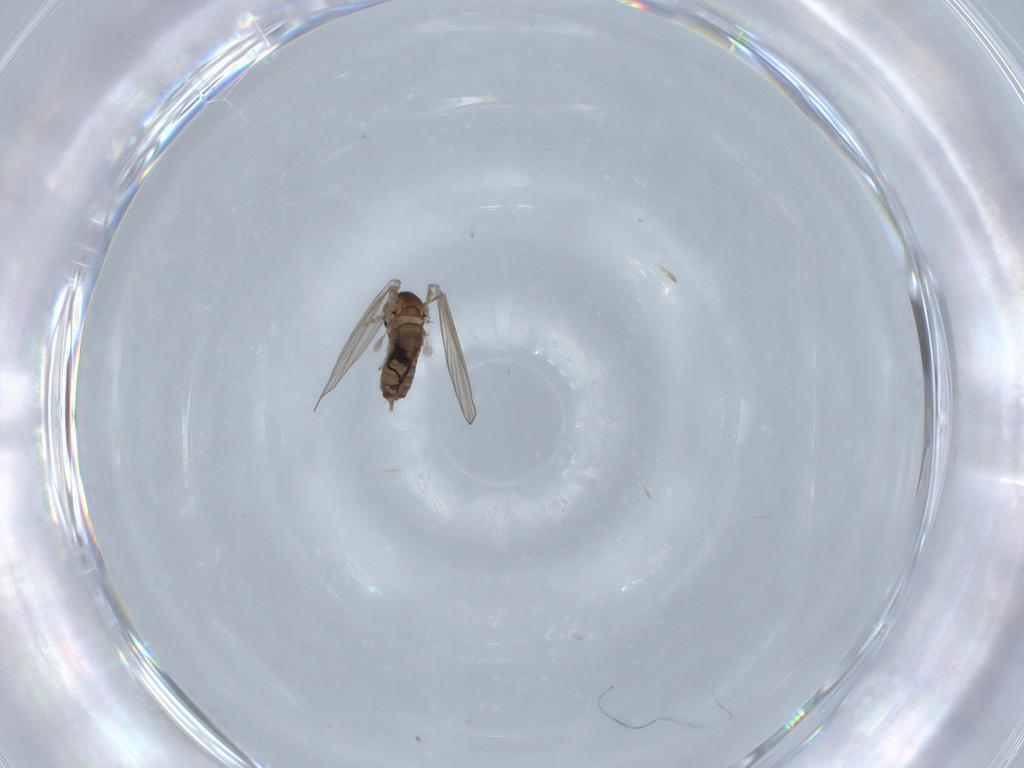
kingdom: Animalia
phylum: Arthropoda
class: Insecta
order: Diptera
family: Psychodidae
